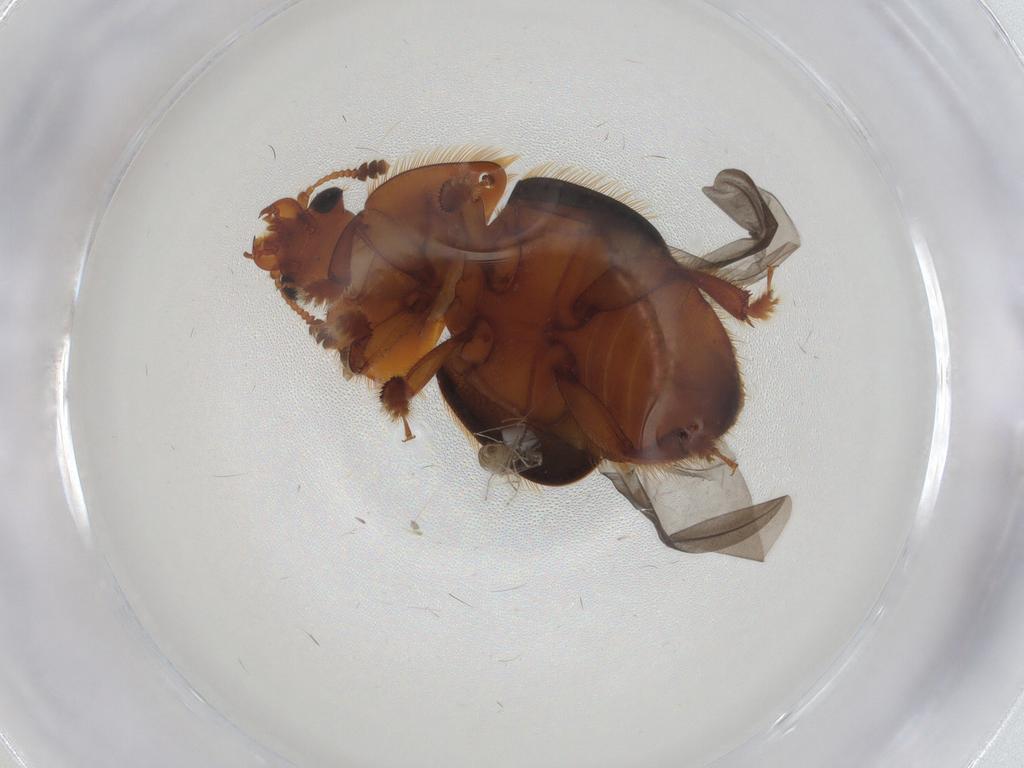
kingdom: Animalia
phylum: Arthropoda
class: Insecta
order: Coleoptera
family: Nitidulidae
